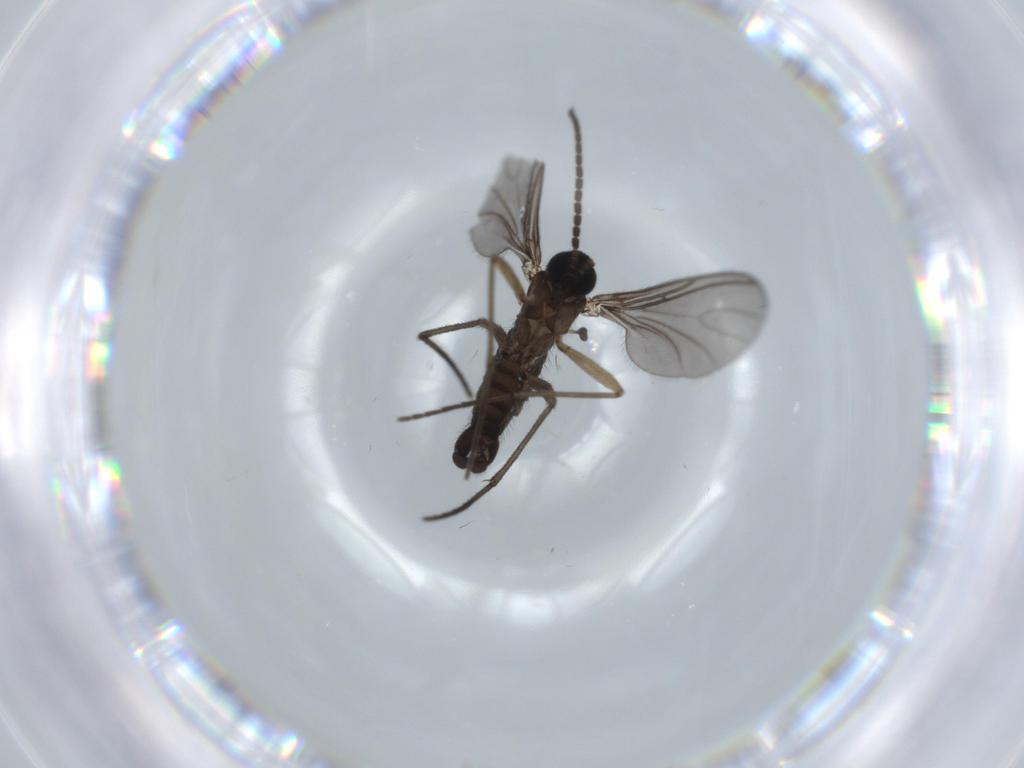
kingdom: Animalia
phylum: Arthropoda
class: Insecta
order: Diptera
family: Sciaridae
